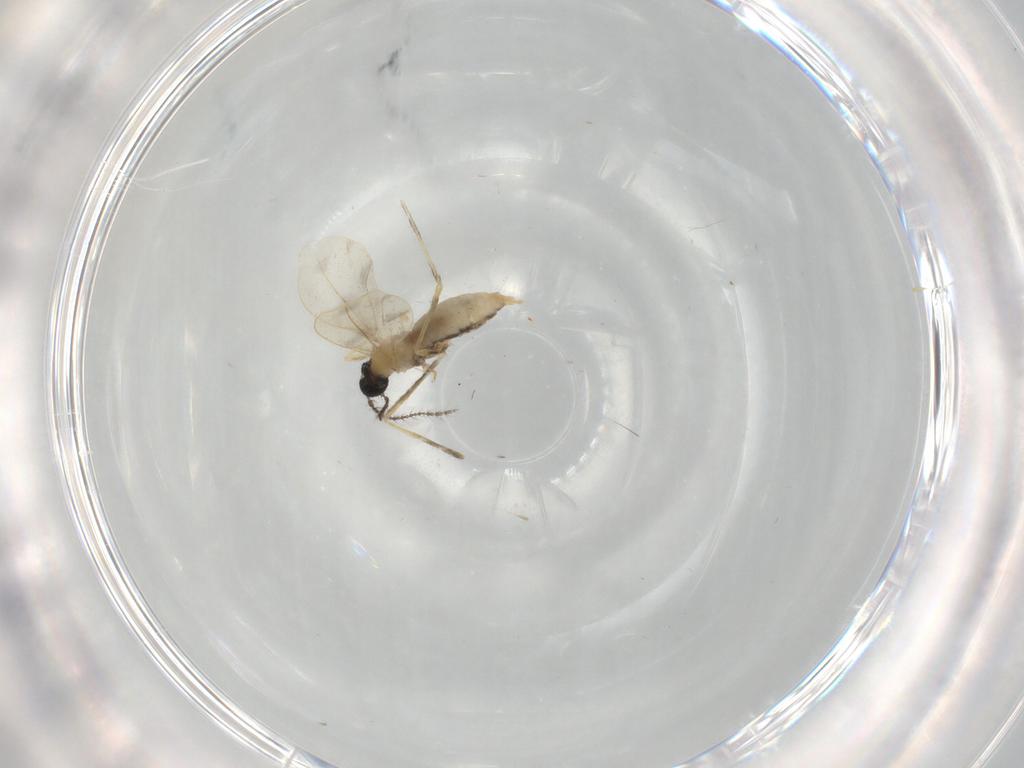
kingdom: Animalia
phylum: Arthropoda
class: Insecta
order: Diptera
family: Cecidomyiidae
